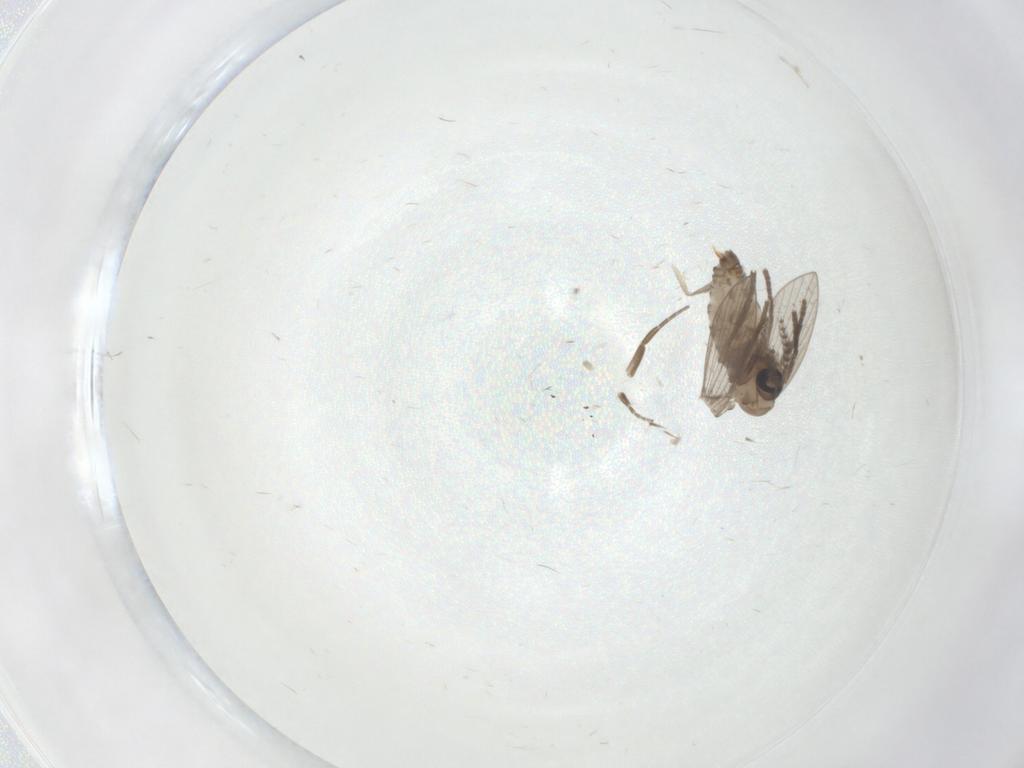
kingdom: Animalia
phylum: Arthropoda
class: Insecta
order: Diptera
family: Psychodidae
